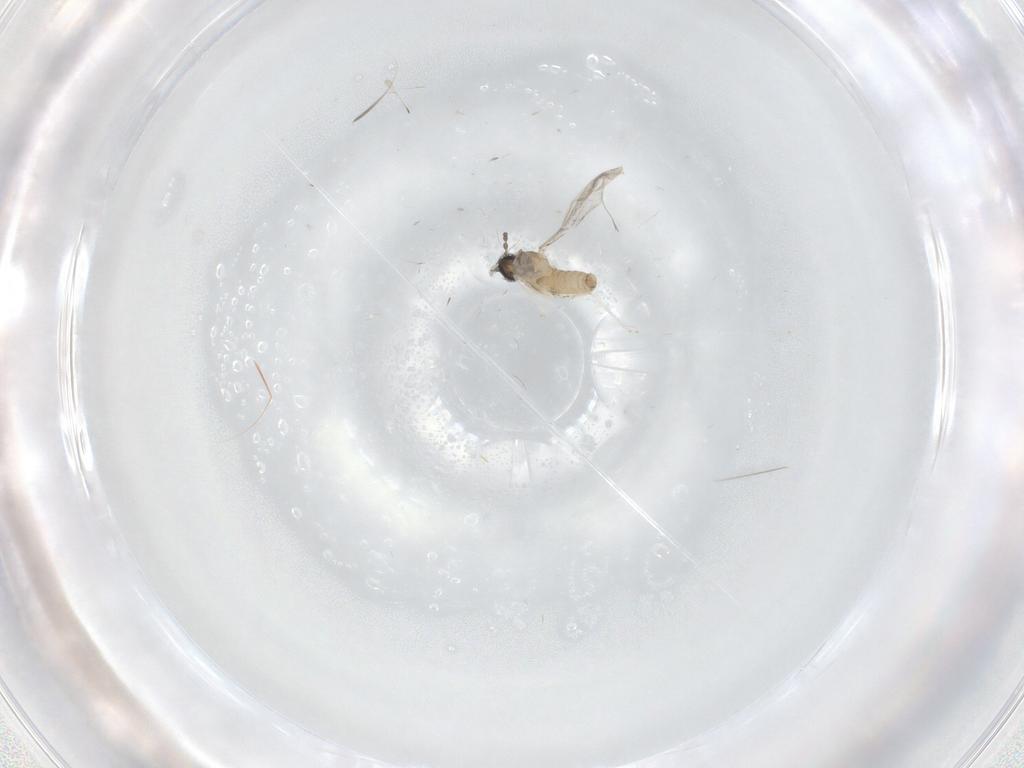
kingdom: Animalia
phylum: Arthropoda
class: Insecta
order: Diptera
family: Cecidomyiidae
